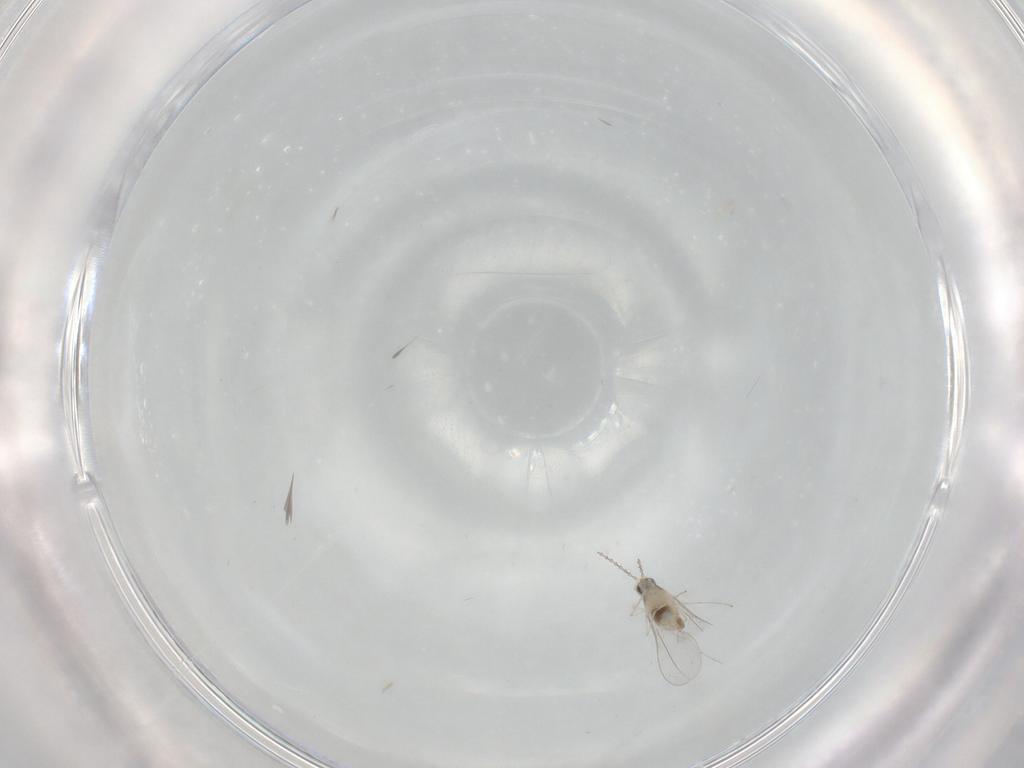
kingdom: Animalia
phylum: Arthropoda
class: Insecta
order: Diptera
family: Cecidomyiidae
